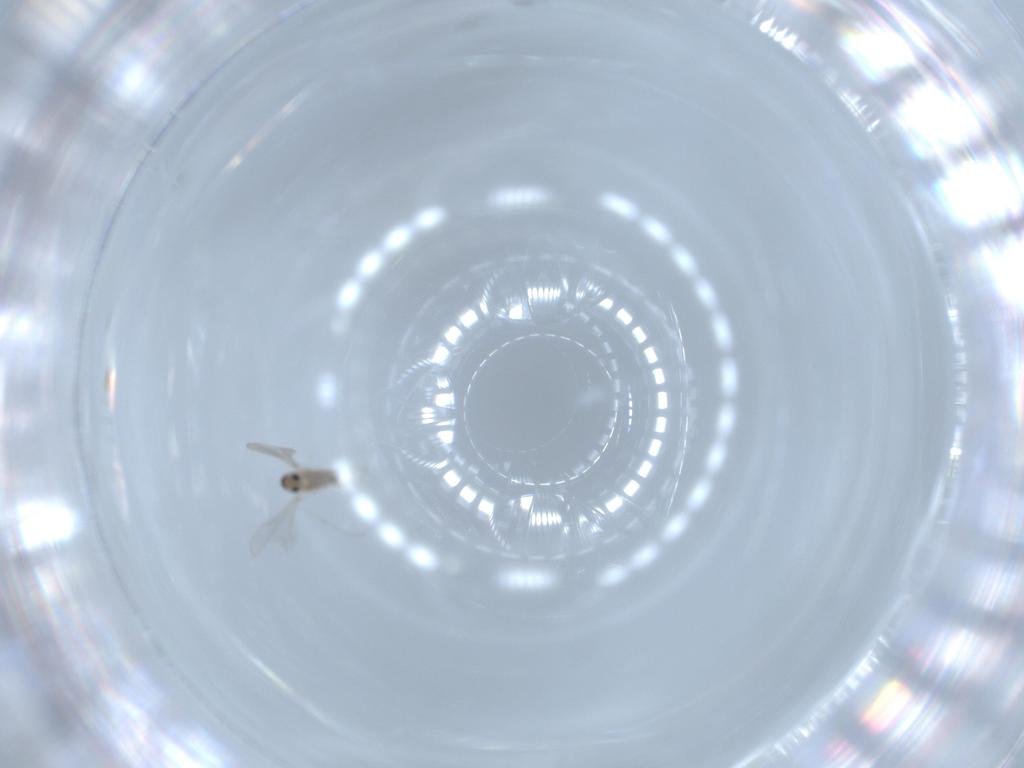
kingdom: Animalia
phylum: Arthropoda
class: Insecta
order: Diptera
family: Cecidomyiidae
